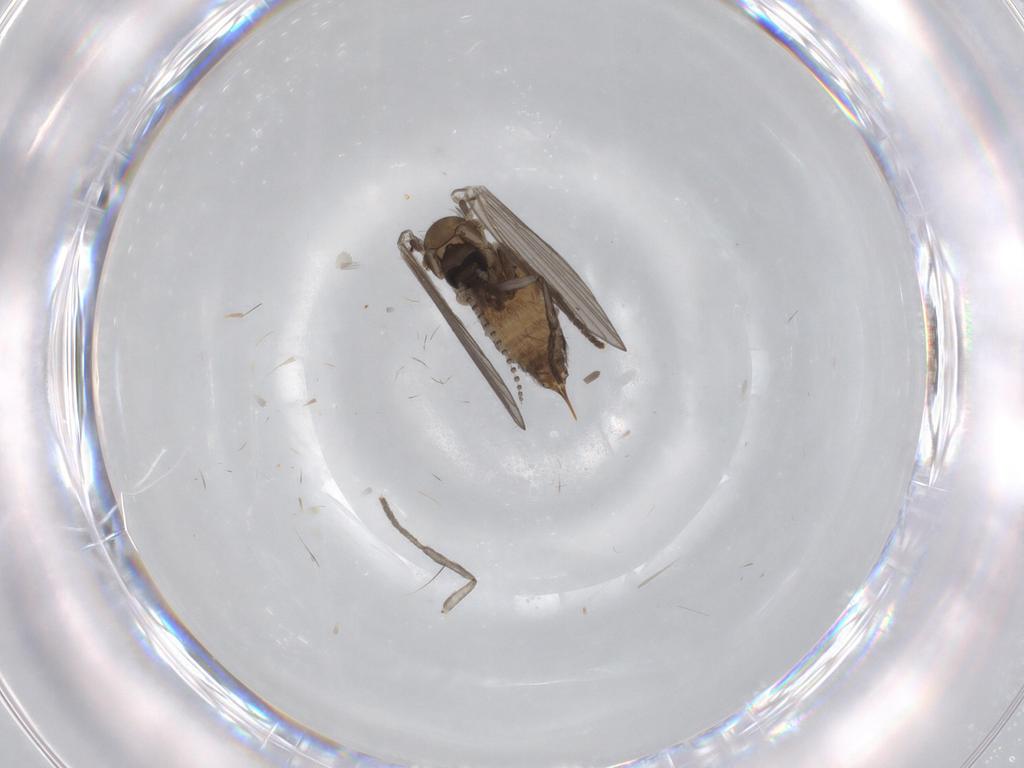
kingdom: Animalia
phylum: Arthropoda
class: Insecta
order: Diptera
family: Psychodidae
